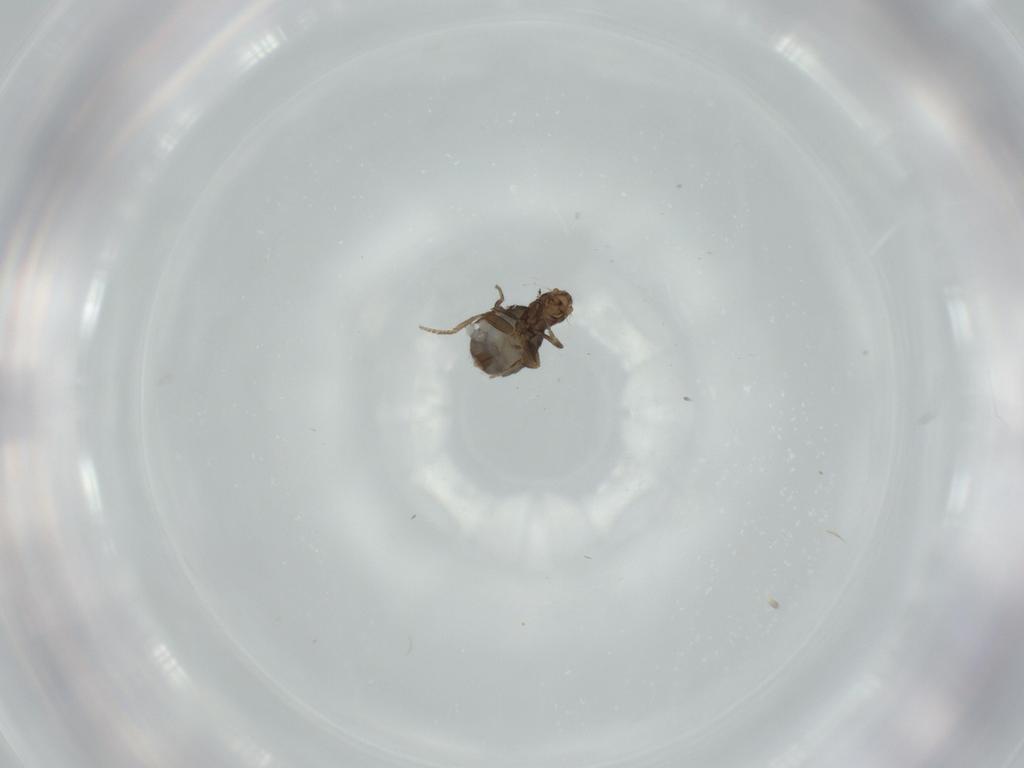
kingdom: Animalia
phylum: Arthropoda
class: Insecta
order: Diptera
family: Phoridae
